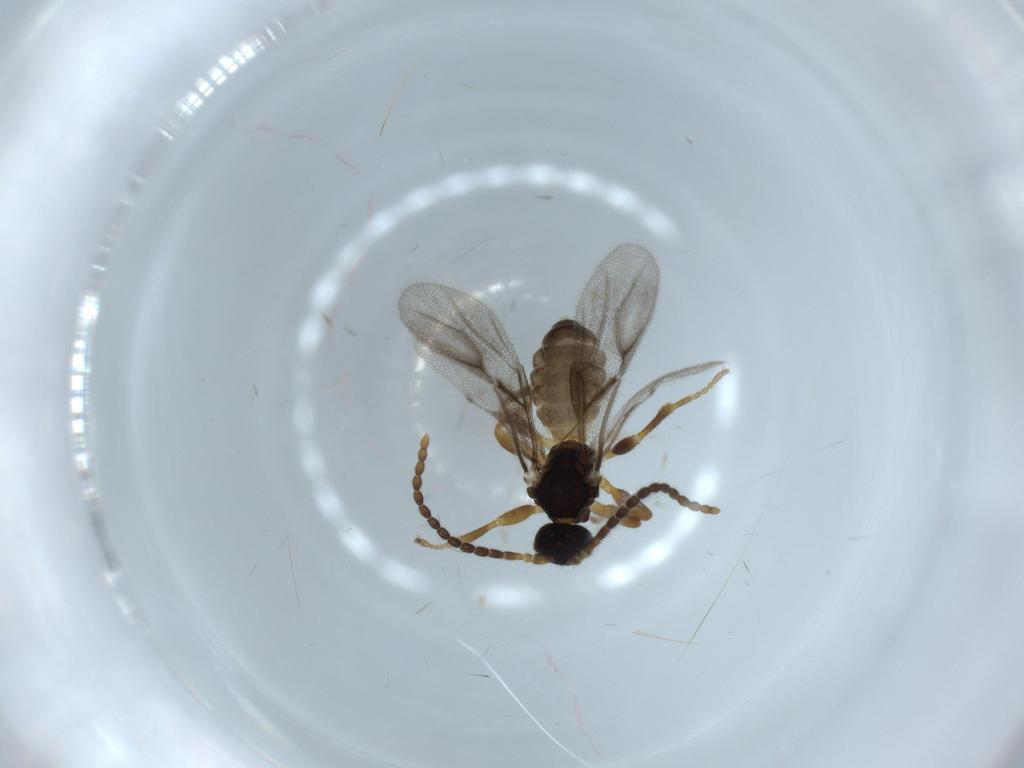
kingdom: Animalia
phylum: Arthropoda
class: Insecta
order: Hymenoptera
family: Braconidae
